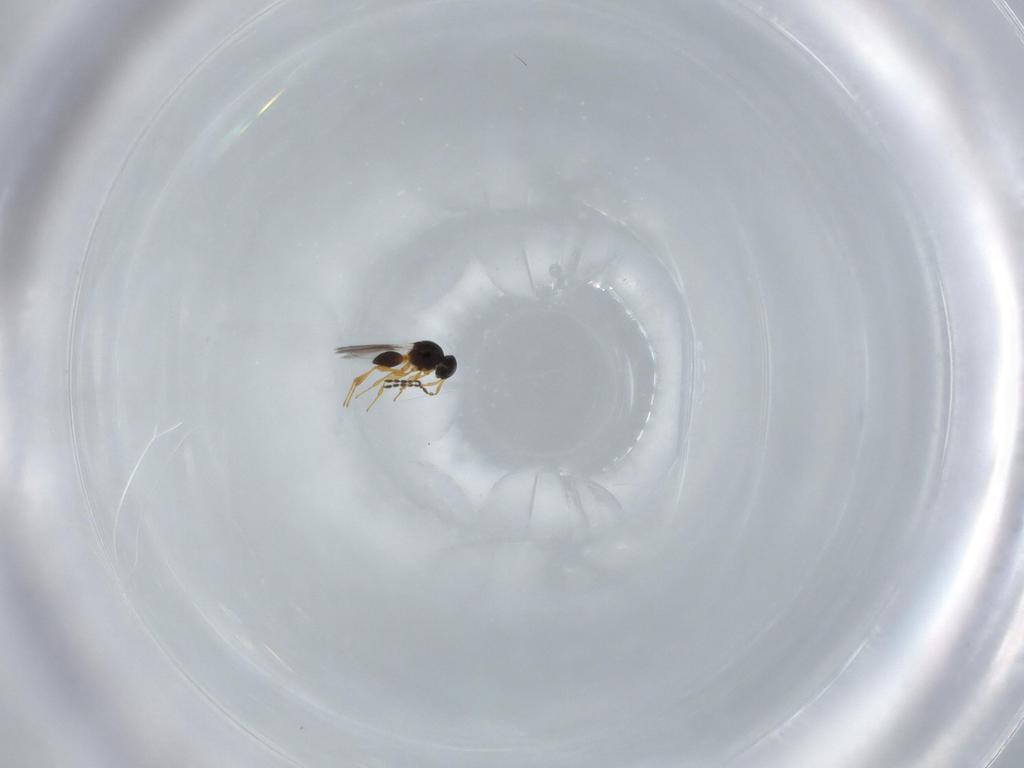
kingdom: Animalia
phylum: Arthropoda
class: Insecta
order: Hymenoptera
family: Platygastridae
